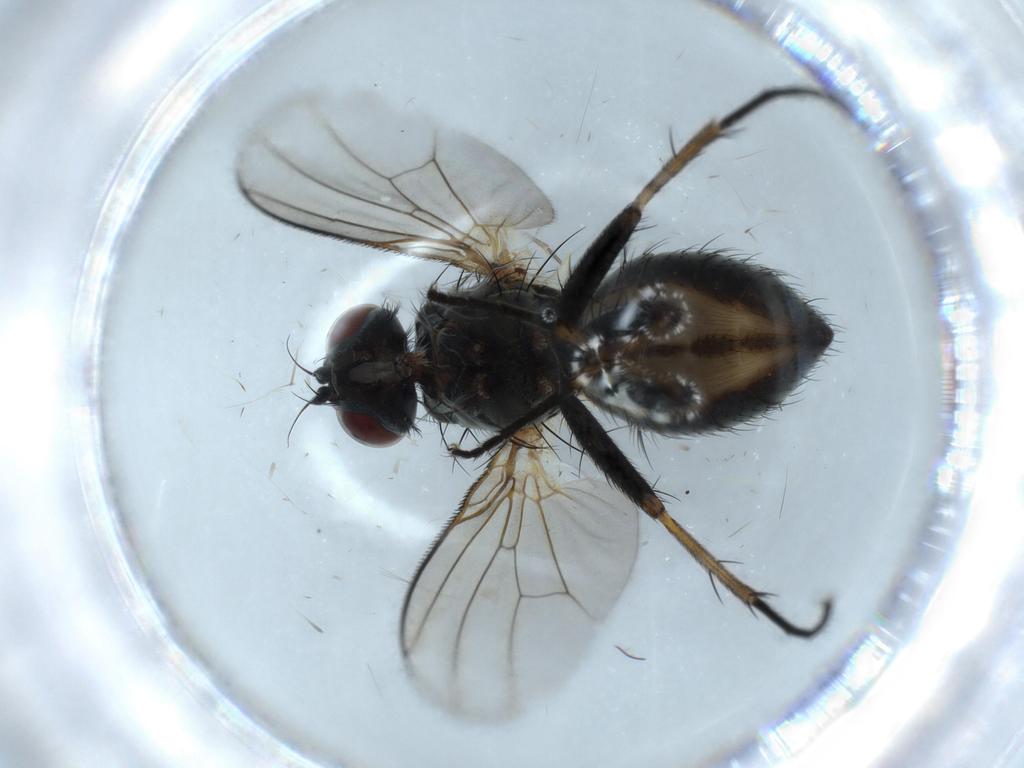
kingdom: Animalia
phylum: Arthropoda
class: Insecta
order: Diptera
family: Muscidae
